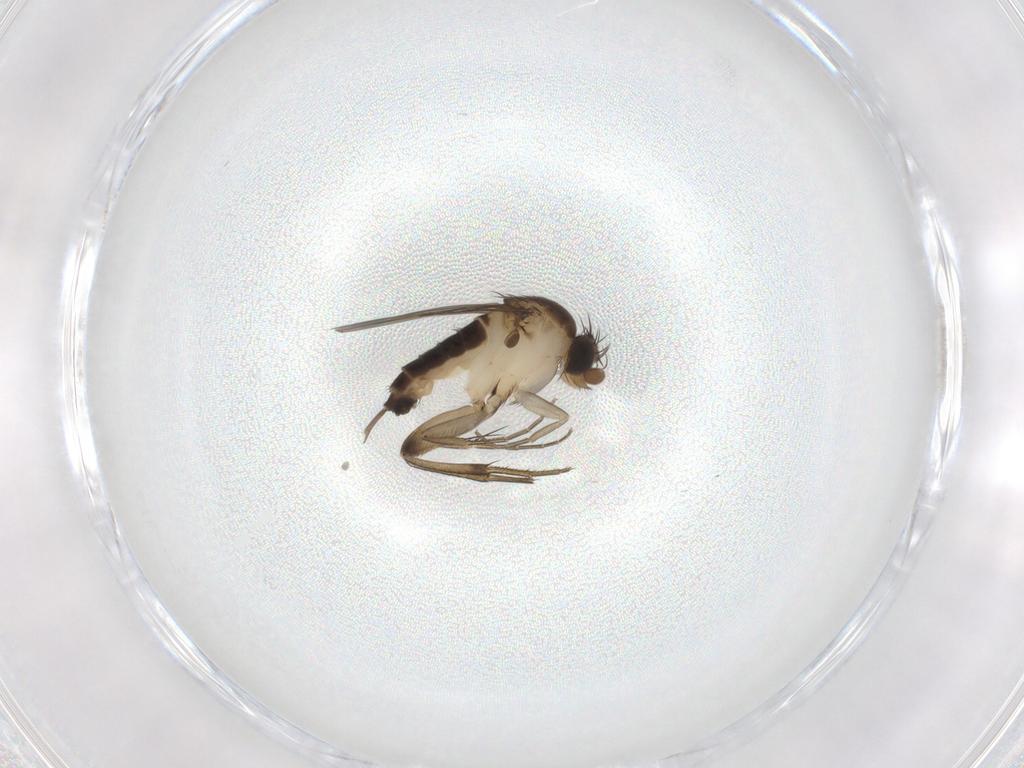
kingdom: Animalia
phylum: Arthropoda
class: Insecta
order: Diptera
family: Phoridae
